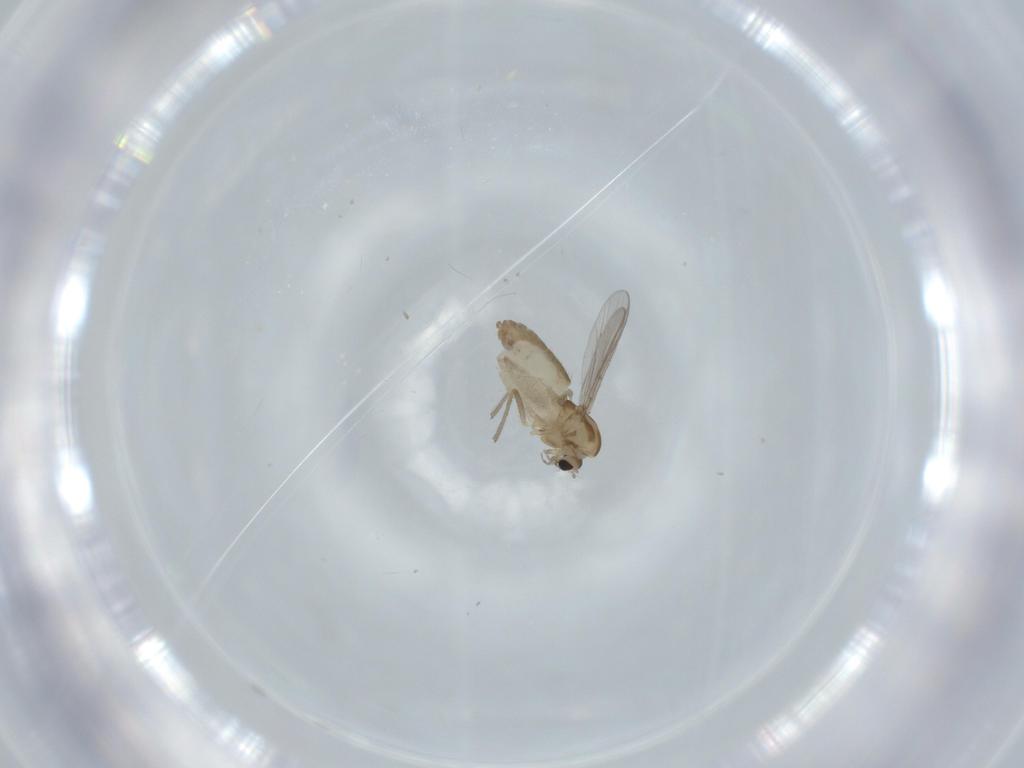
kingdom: Animalia
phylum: Arthropoda
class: Insecta
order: Diptera
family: Chironomidae
